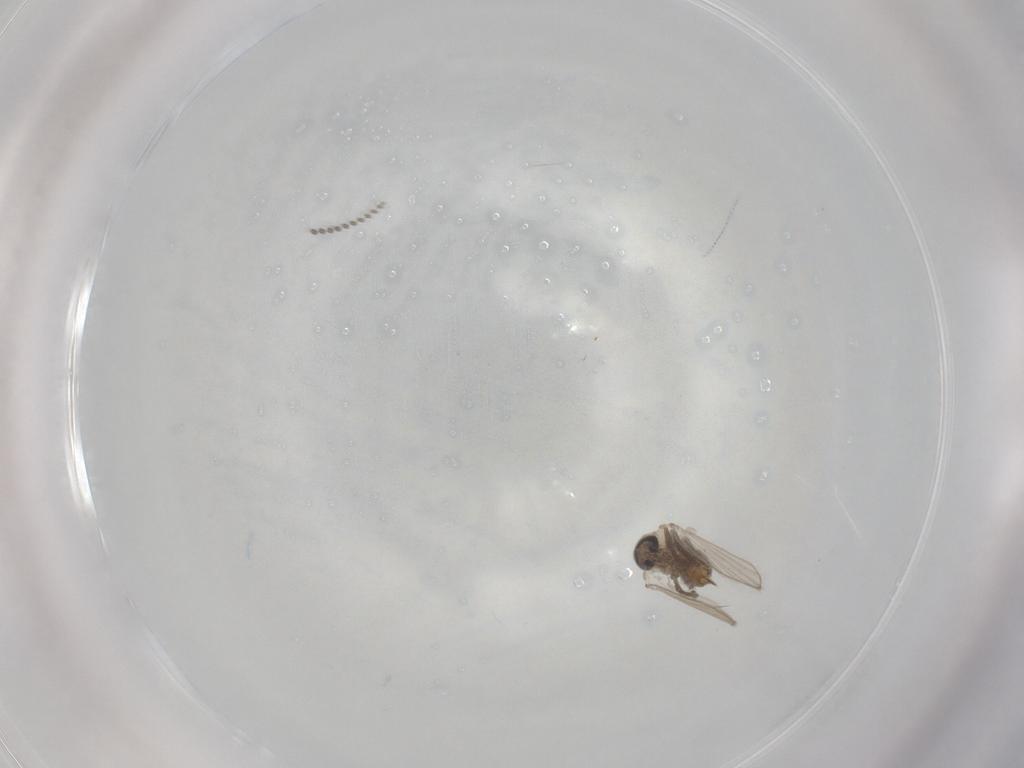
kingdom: Animalia
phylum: Arthropoda
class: Insecta
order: Diptera
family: Psychodidae
